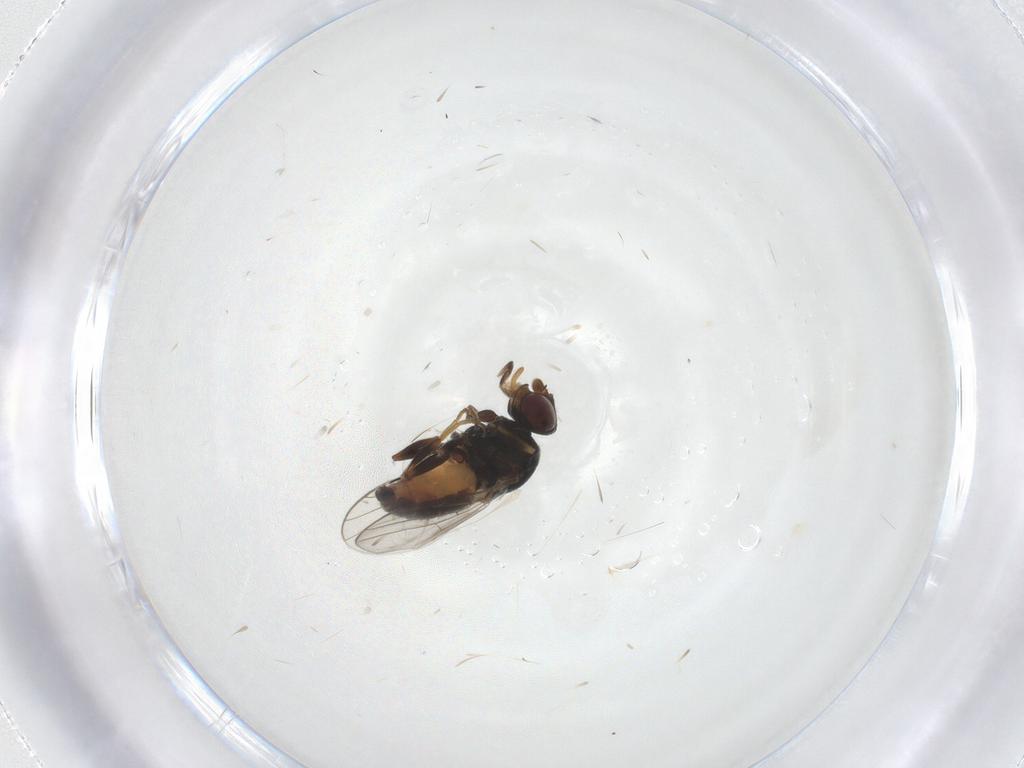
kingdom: Animalia
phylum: Arthropoda
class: Insecta
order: Diptera
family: Chloropidae
